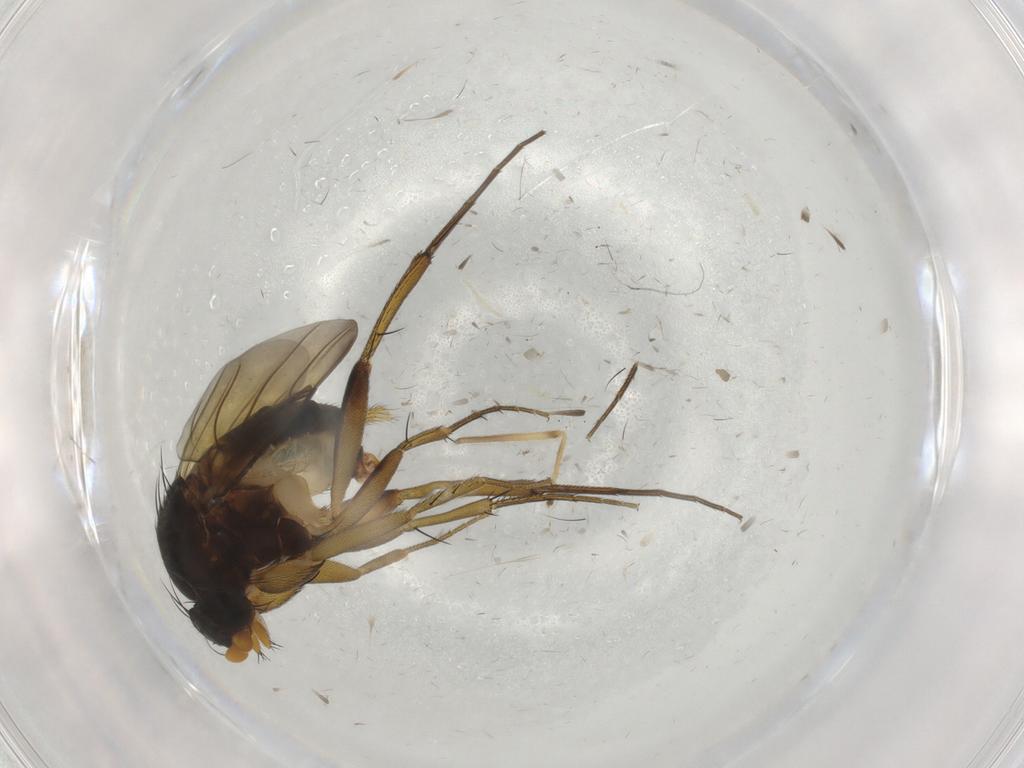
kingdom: Animalia
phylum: Arthropoda
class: Insecta
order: Diptera
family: Phoridae
